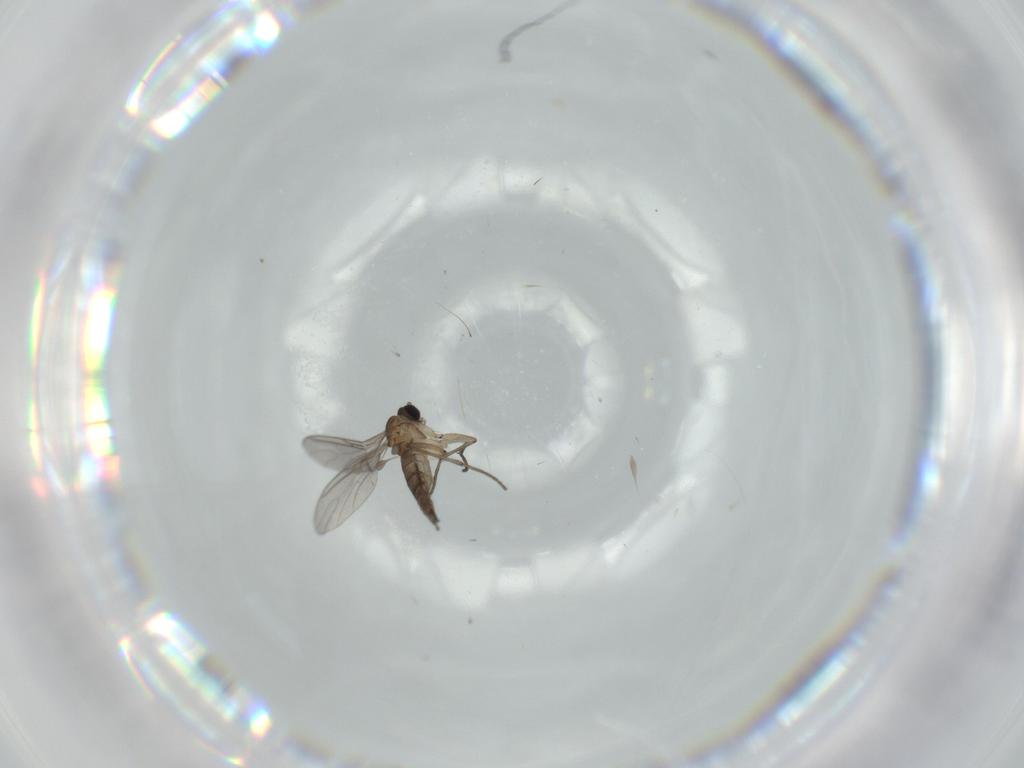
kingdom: Animalia
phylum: Arthropoda
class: Insecta
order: Diptera
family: Sciaridae
